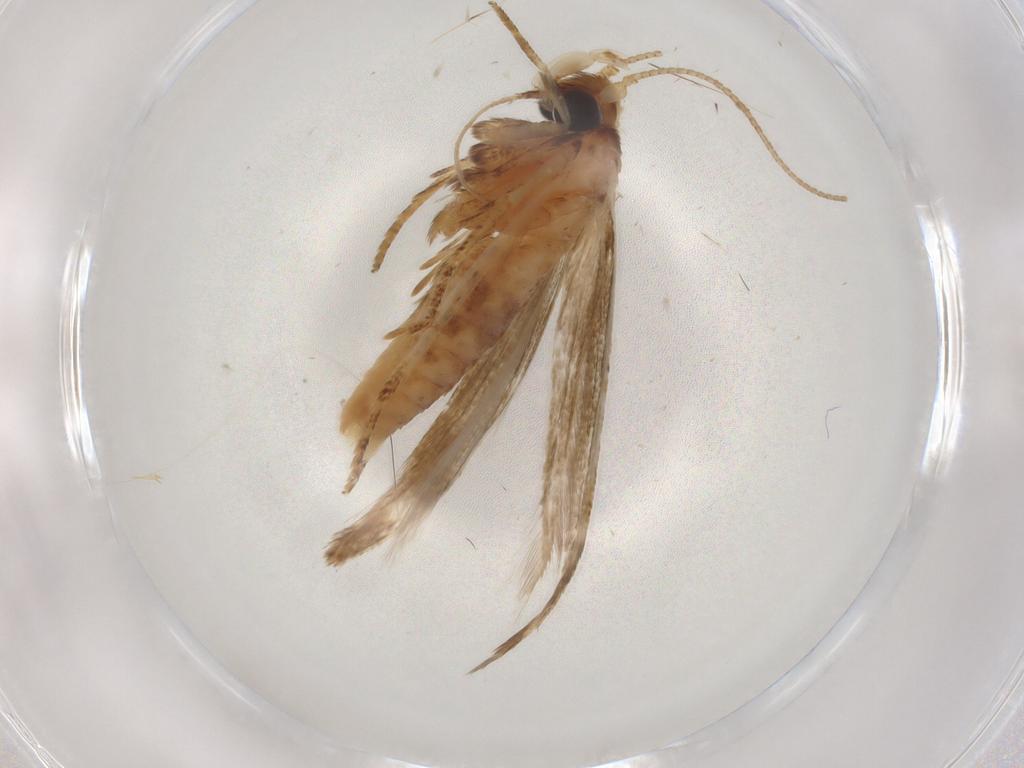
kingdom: Animalia
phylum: Arthropoda
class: Insecta
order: Lepidoptera
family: Blastobasidae
